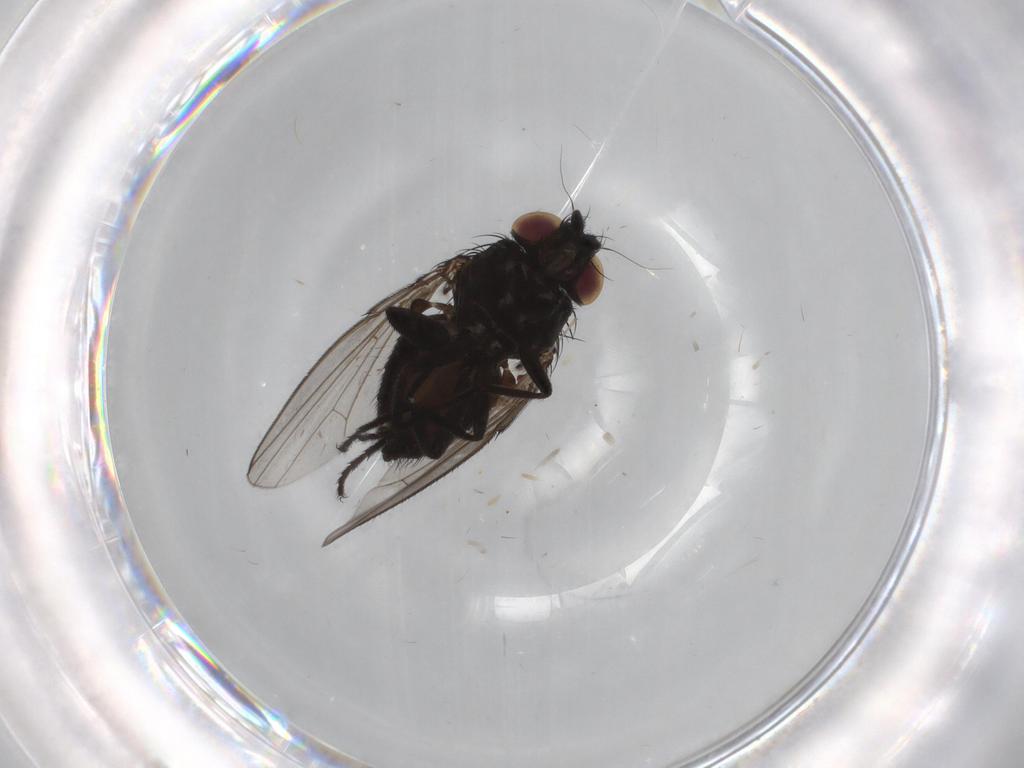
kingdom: Animalia
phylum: Arthropoda
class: Insecta
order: Diptera
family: Milichiidae
